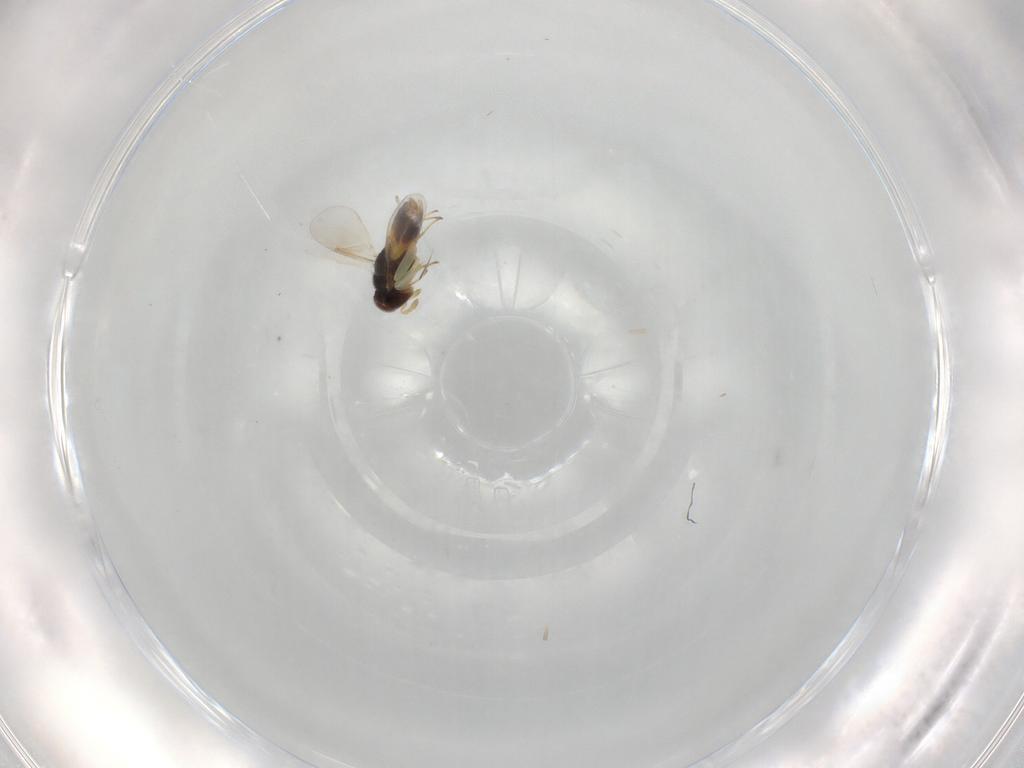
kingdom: Animalia
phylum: Arthropoda
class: Insecta
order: Hymenoptera
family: Aphelinidae
